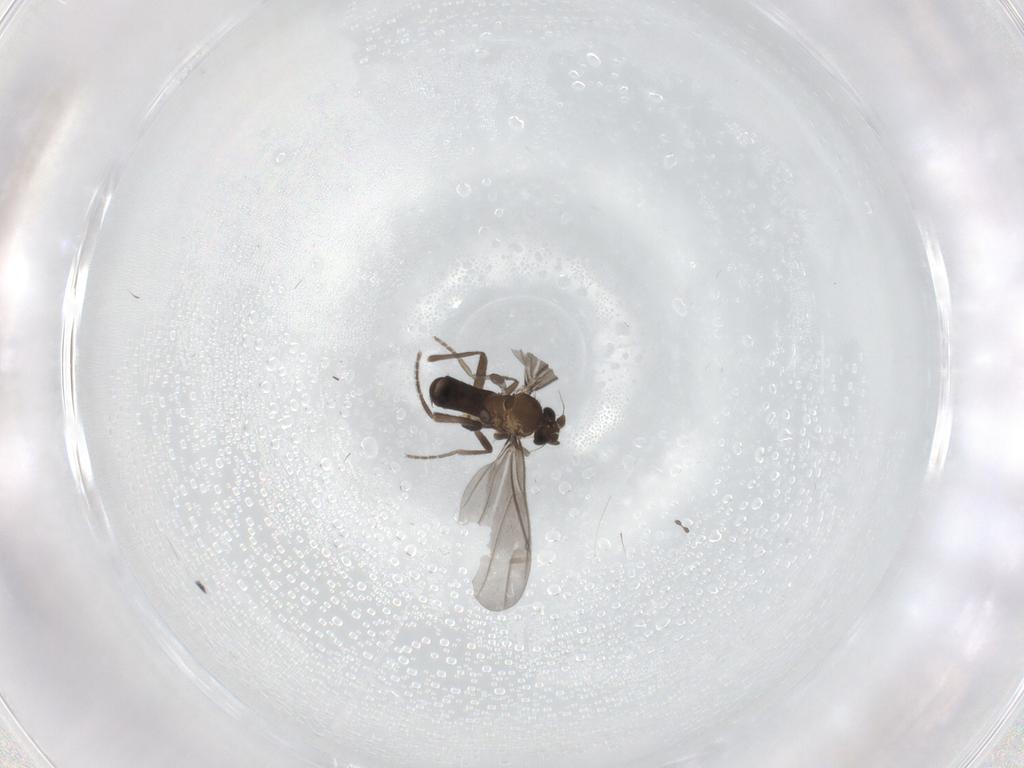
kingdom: Animalia
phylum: Arthropoda
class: Insecta
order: Diptera
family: Phoridae
